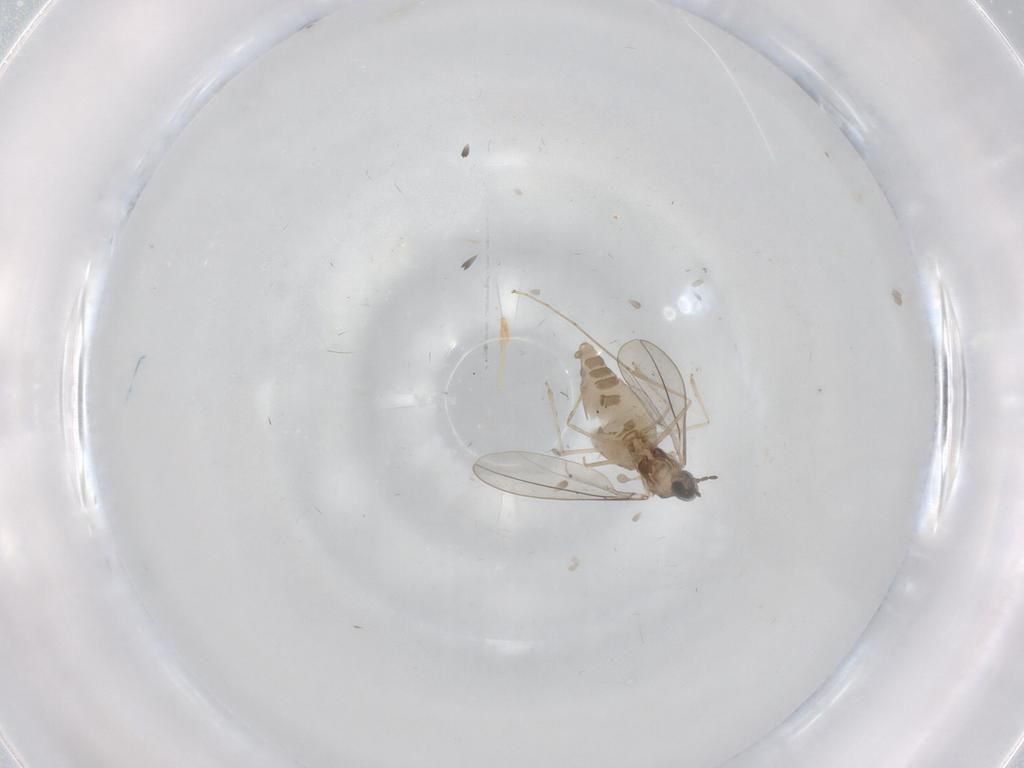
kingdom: Animalia
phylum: Arthropoda
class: Insecta
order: Diptera
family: Cecidomyiidae
